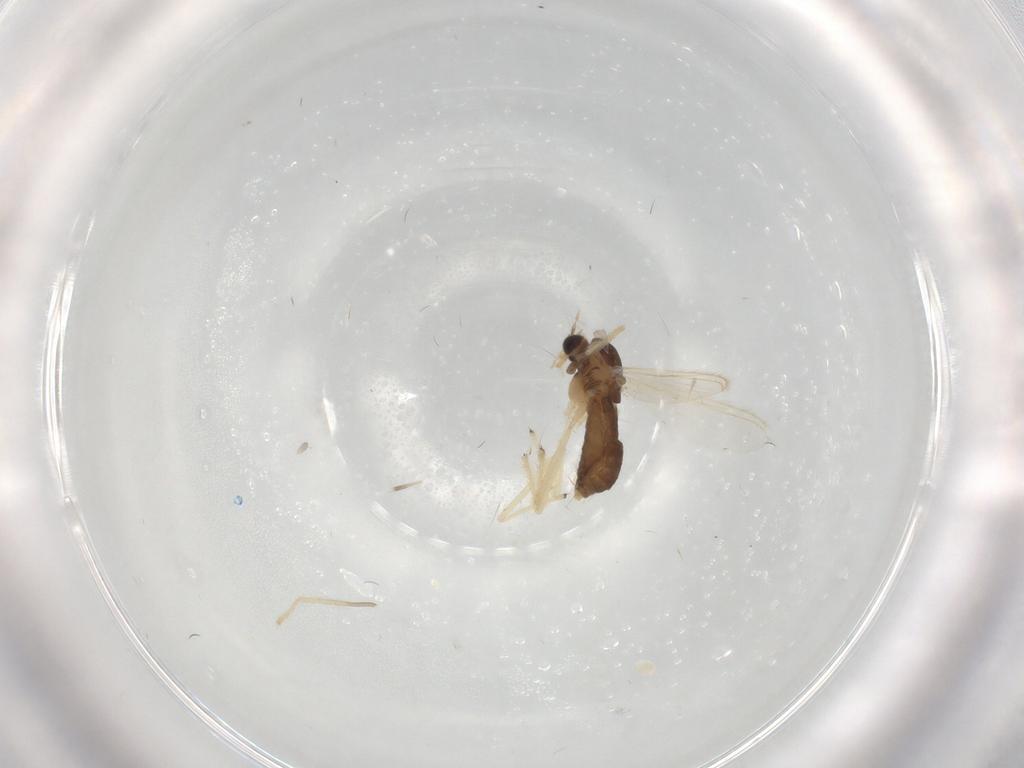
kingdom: Animalia
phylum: Arthropoda
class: Insecta
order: Diptera
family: Chironomidae
